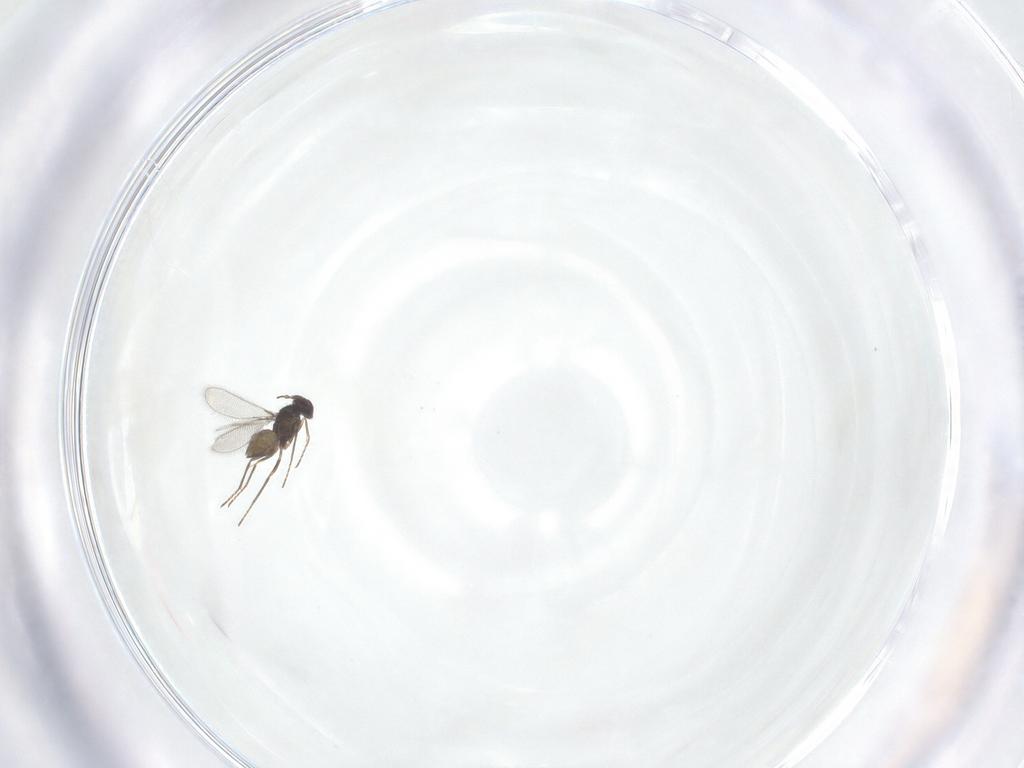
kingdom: Animalia
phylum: Arthropoda
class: Insecta
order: Hymenoptera
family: Mymaridae
